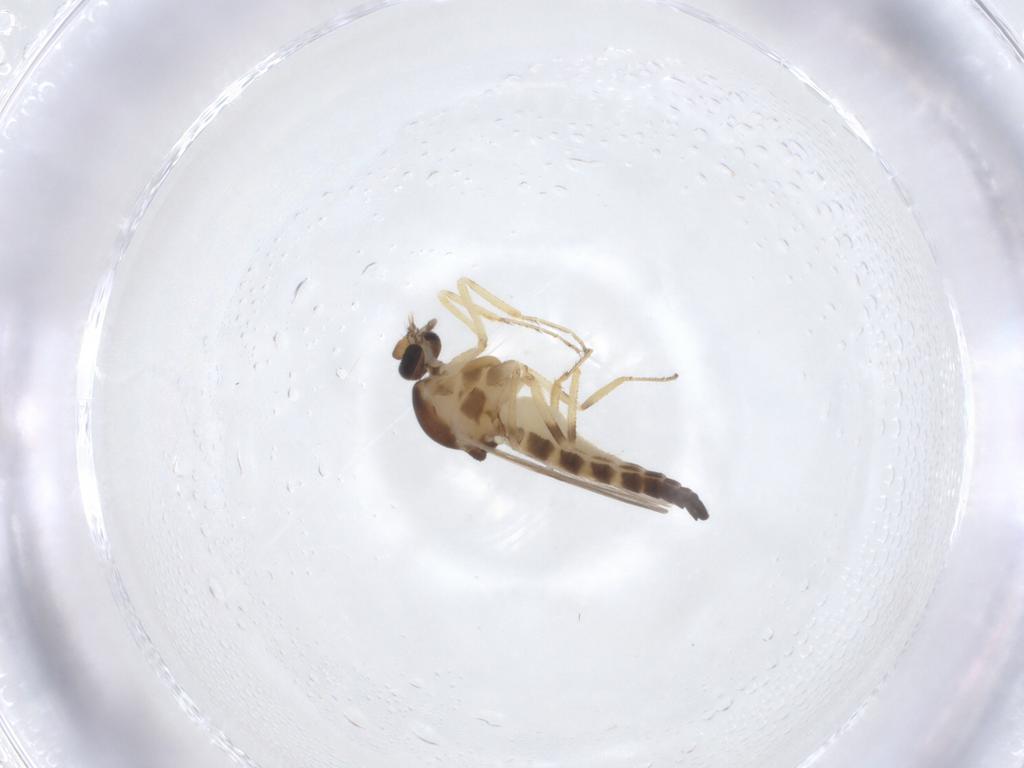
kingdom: Animalia
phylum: Arthropoda
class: Insecta
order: Diptera
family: Ceratopogonidae
